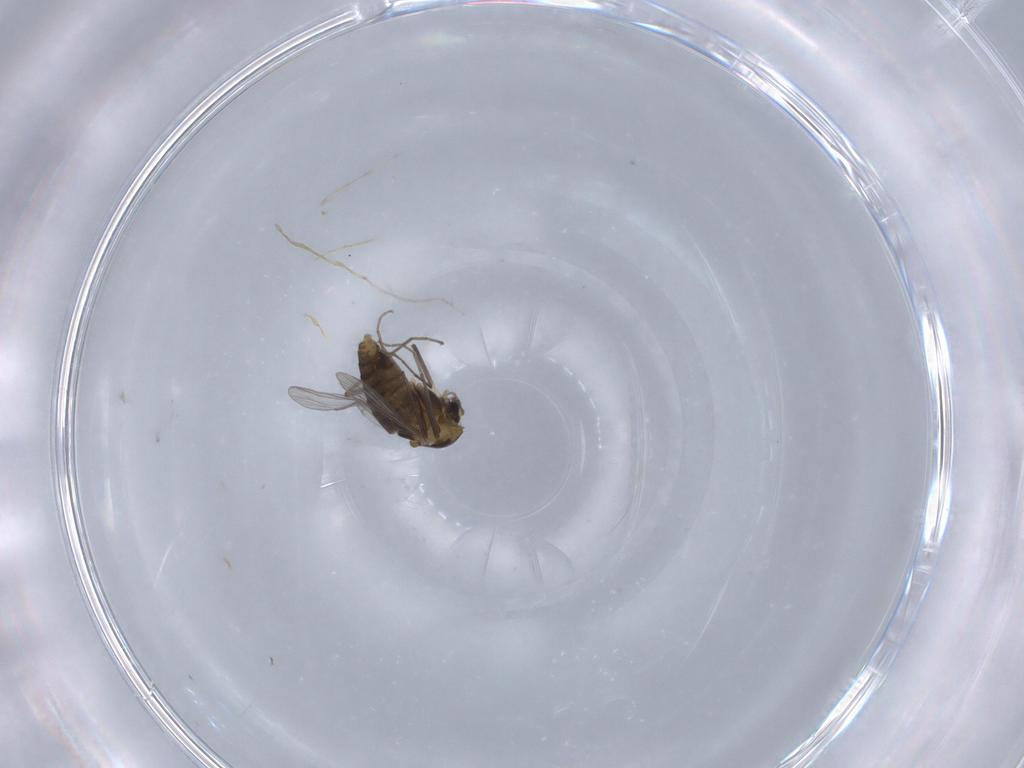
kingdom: Animalia
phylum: Arthropoda
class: Insecta
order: Diptera
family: Chironomidae
